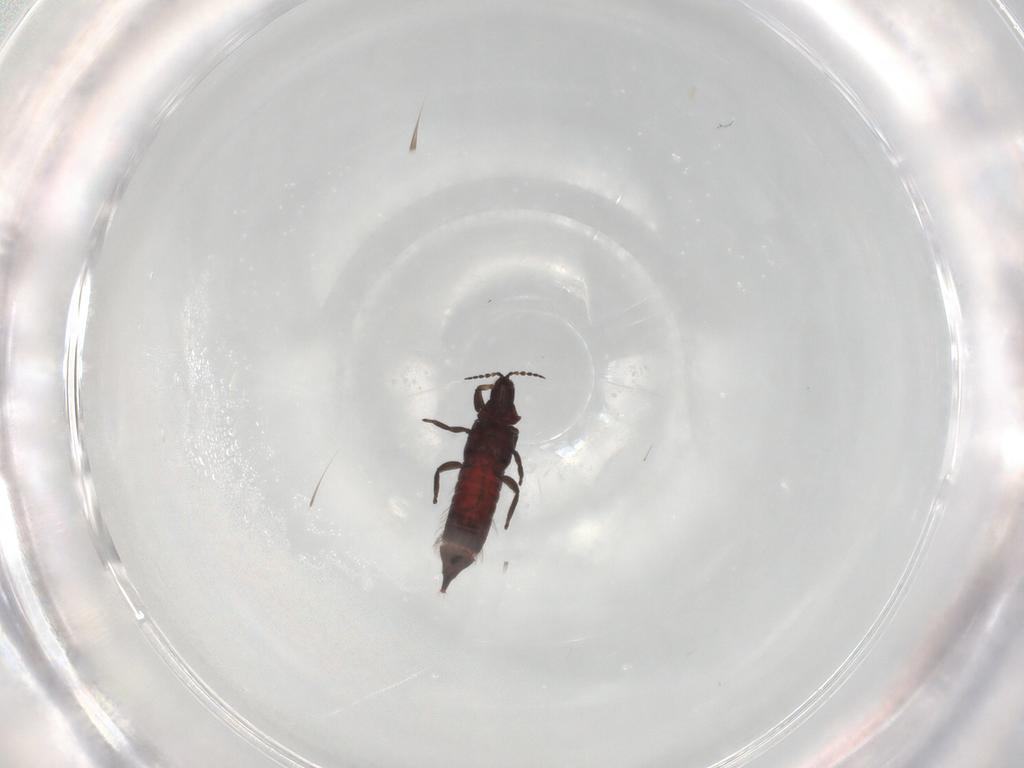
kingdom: Animalia
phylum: Arthropoda
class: Insecta
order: Thysanoptera
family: Phlaeothripidae
